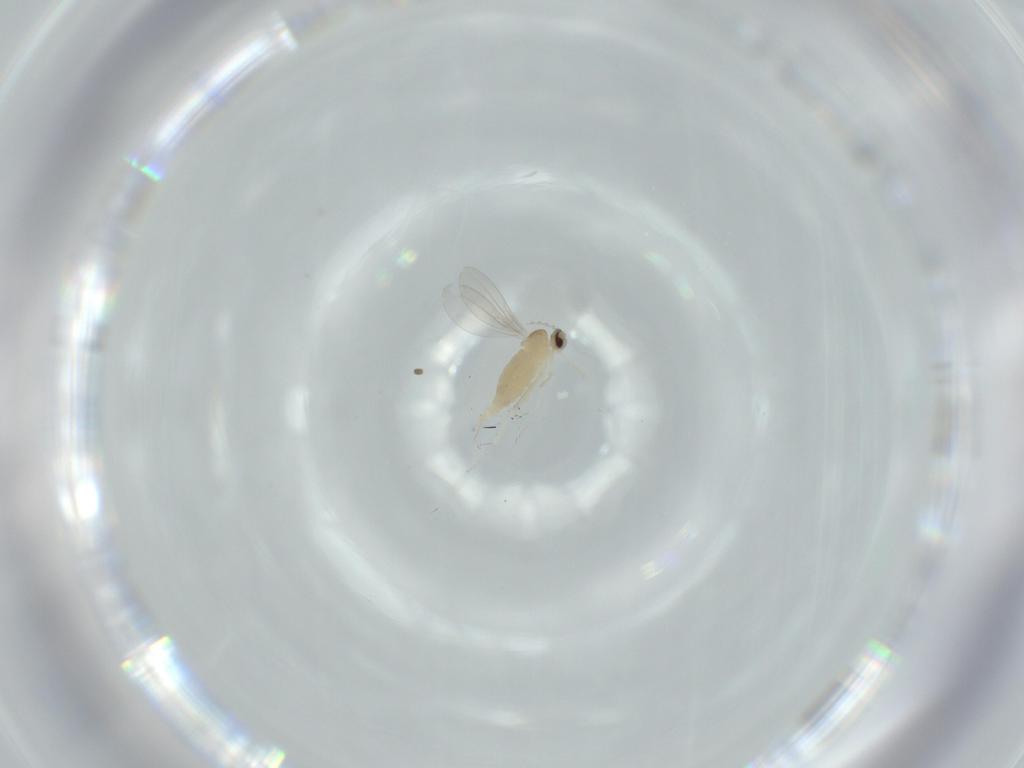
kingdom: Animalia
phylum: Arthropoda
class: Insecta
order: Diptera
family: Cecidomyiidae
